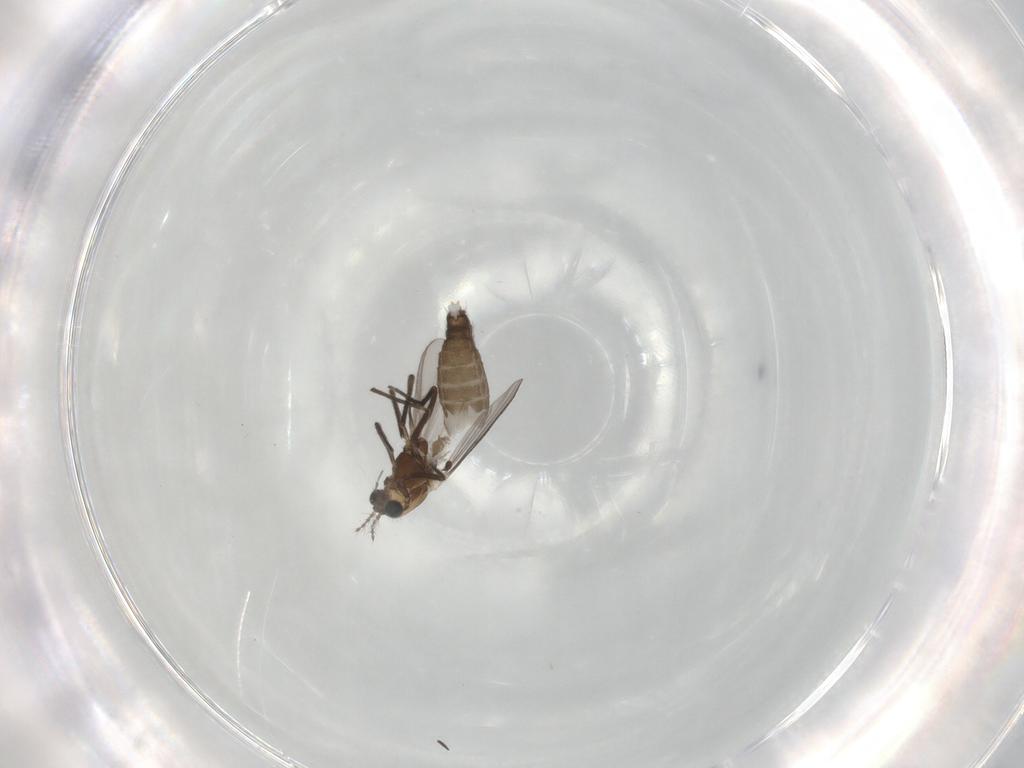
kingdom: Animalia
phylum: Arthropoda
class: Insecta
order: Diptera
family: Chironomidae
